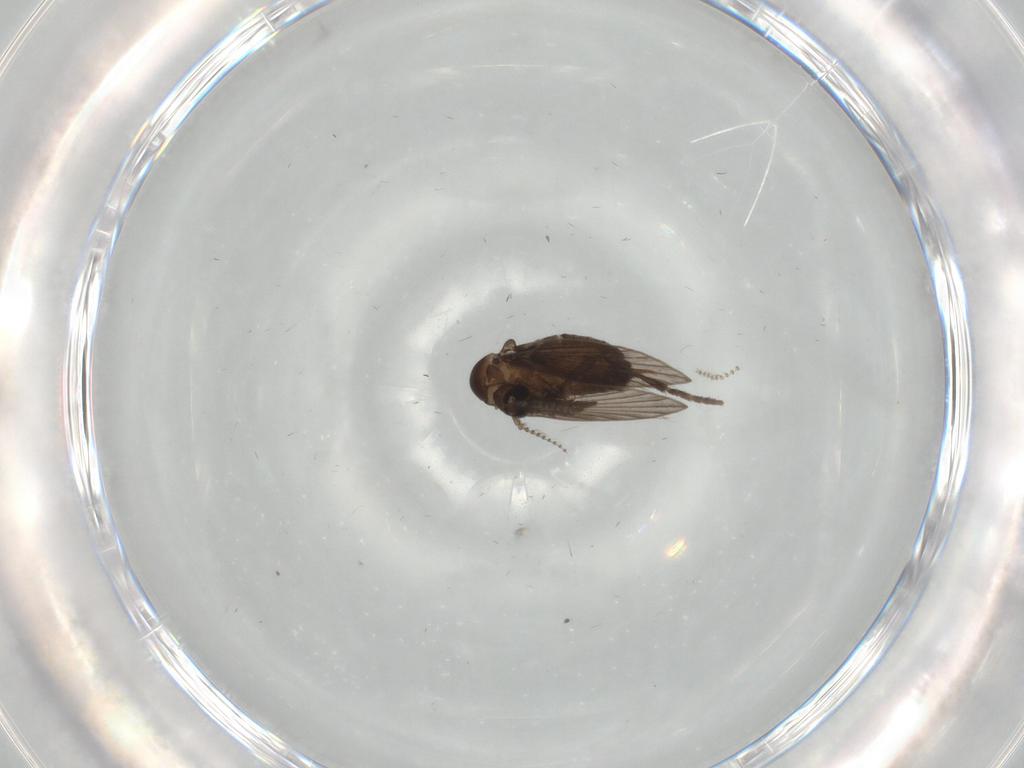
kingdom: Animalia
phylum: Arthropoda
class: Insecta
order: Diptera
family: Psychodidae
